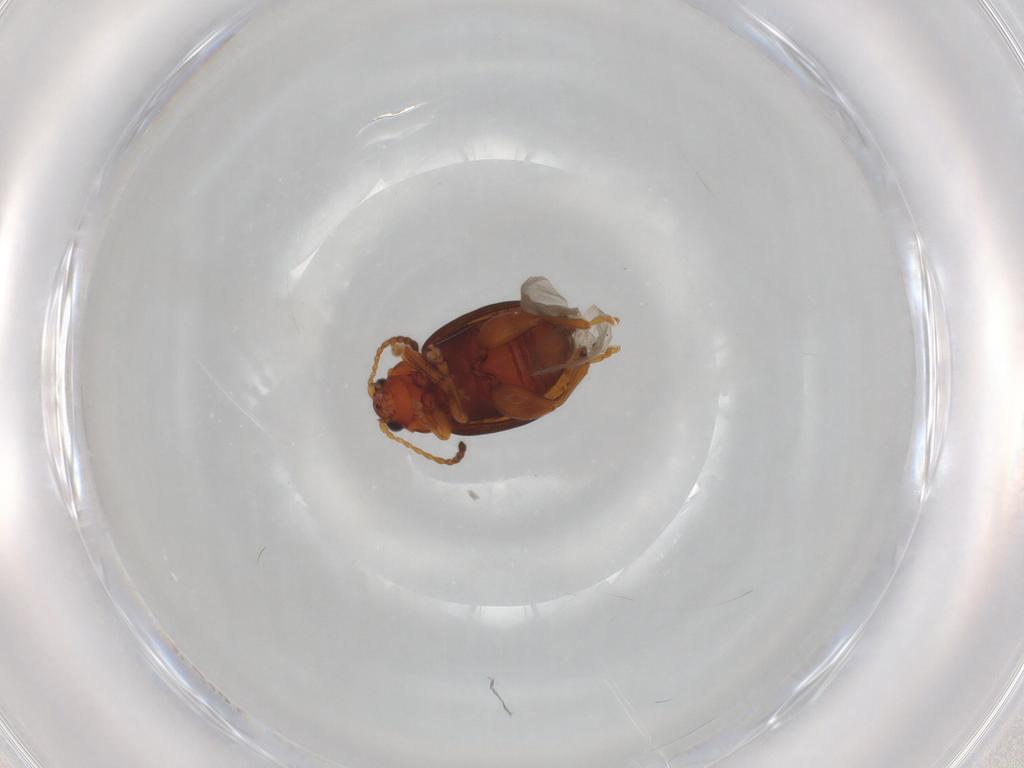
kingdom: Animalia
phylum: Arthropoda
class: Insecta
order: Coleoptera
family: Chrysomelidae
